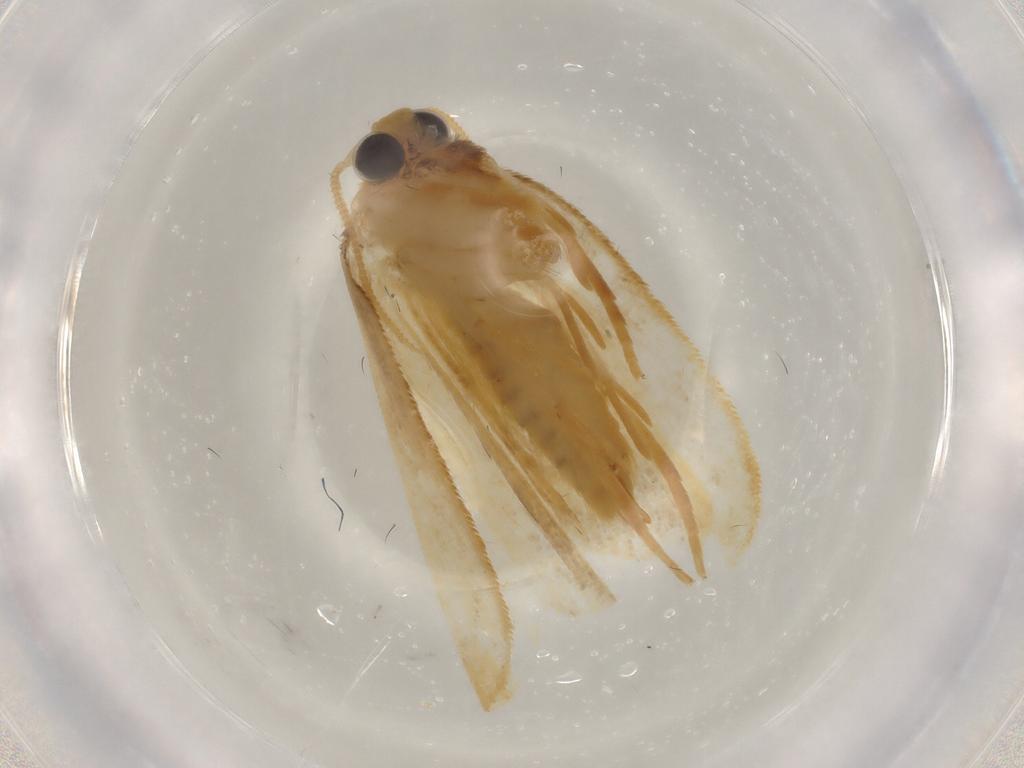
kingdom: Animalia
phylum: Arthropoda
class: Insecta
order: Lepidoptera
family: Psychidae
